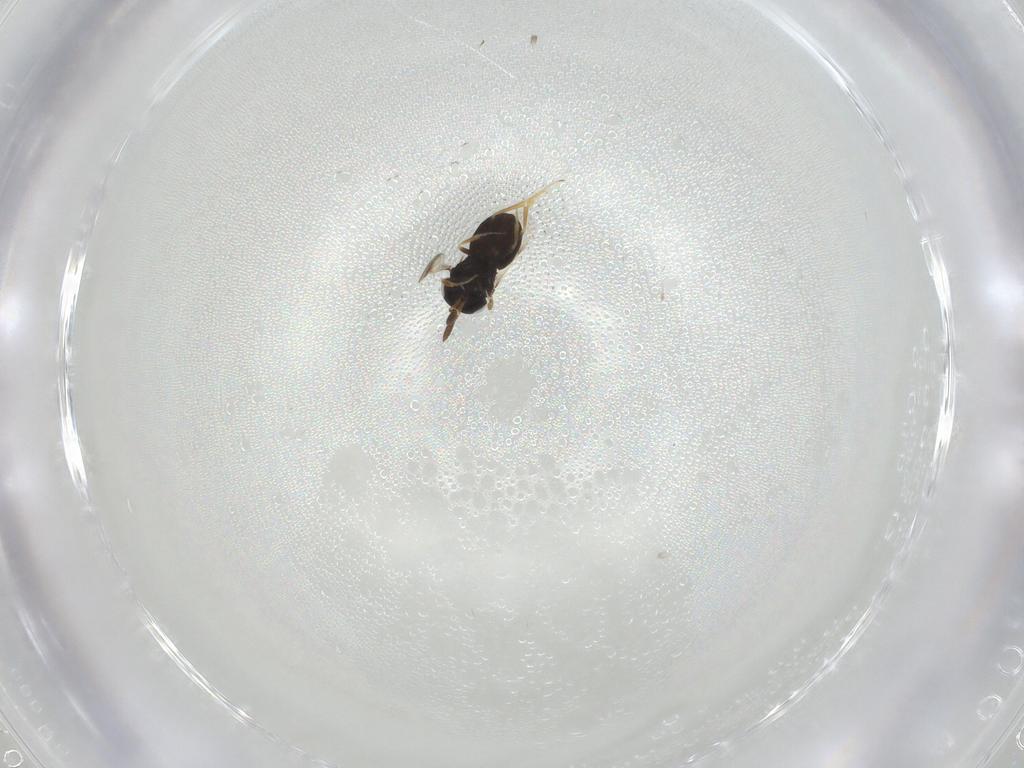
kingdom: Animalia
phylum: Arthropoda
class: Insecta
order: Hymenoptera
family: Scelionidae
